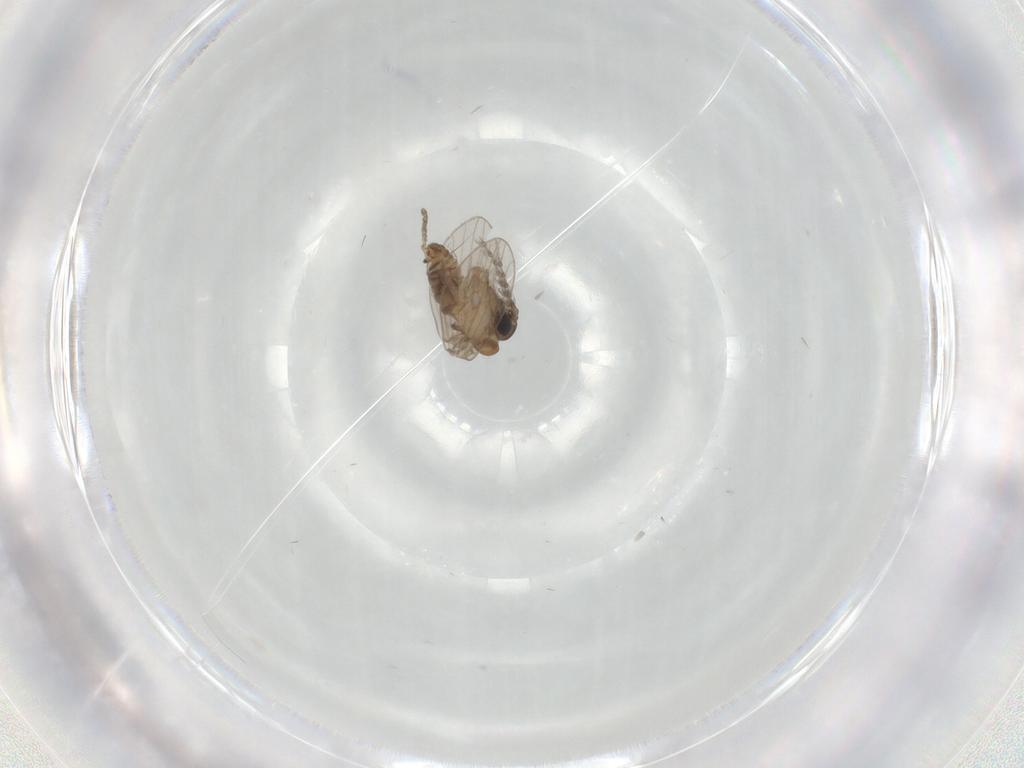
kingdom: Animalia
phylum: Arthropoda
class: Insecta
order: Diptera
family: Psychodidae
